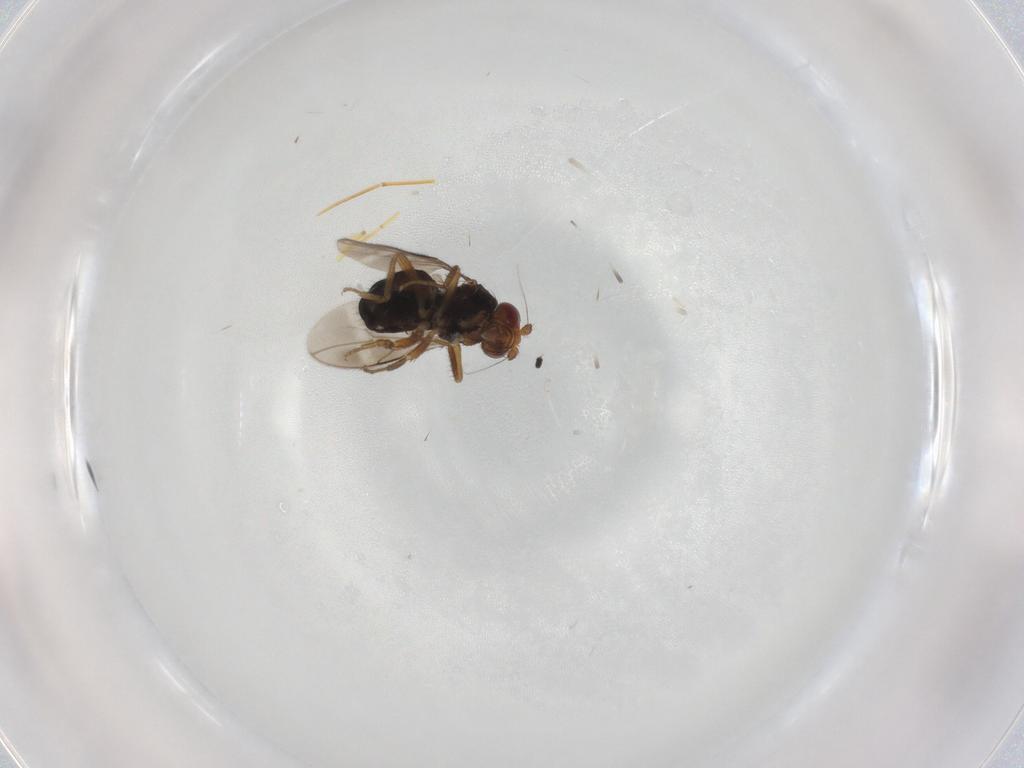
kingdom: Animalia
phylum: Arthropoda
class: Insecta
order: Diptera
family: Sphaeroceridae
